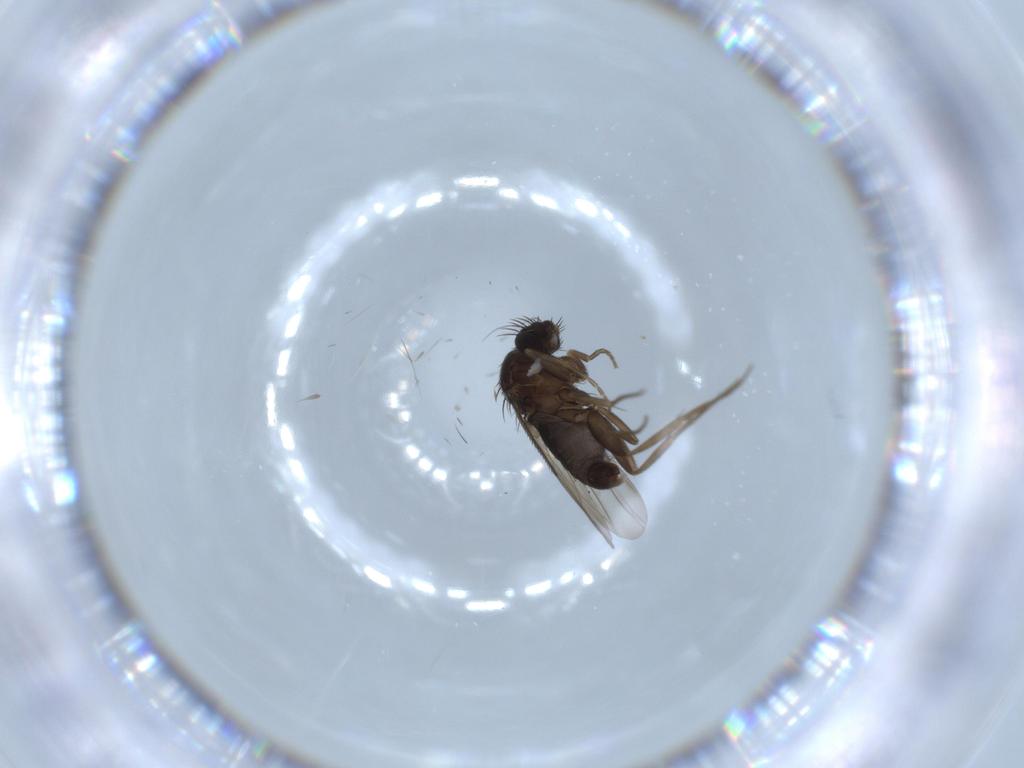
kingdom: Animalia
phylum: Arthropoda
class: Insecta
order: Diptera
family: Phoridae
